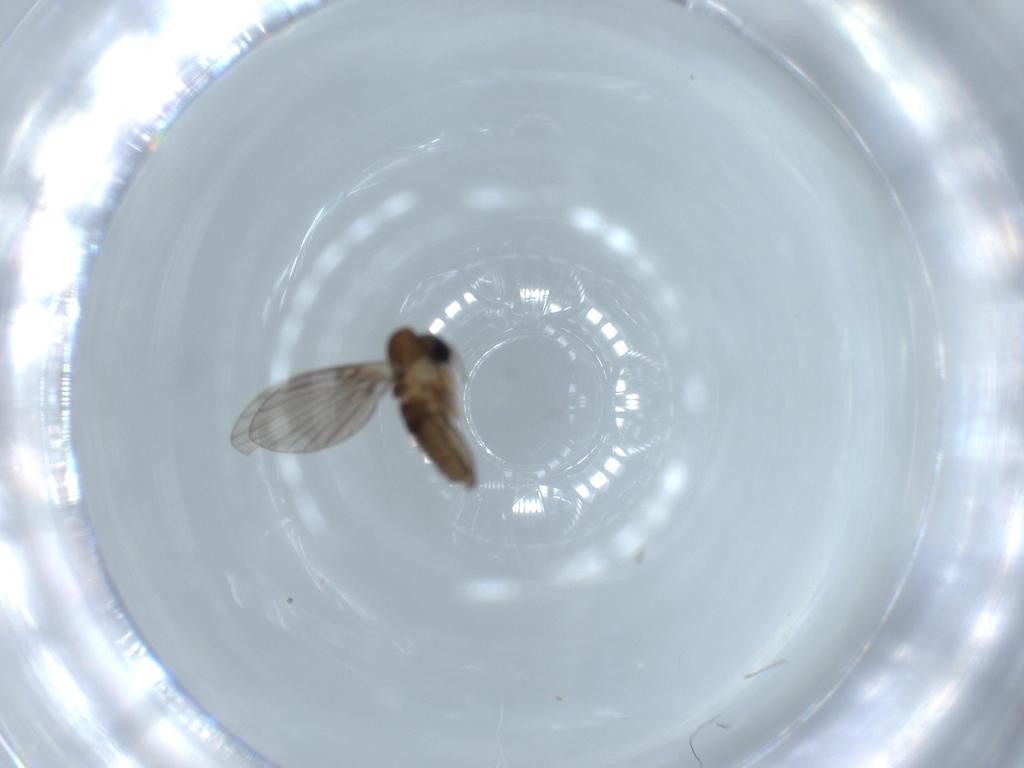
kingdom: Animalia
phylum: Arthropoda
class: Insecta
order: Diptera
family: Psychodidae
